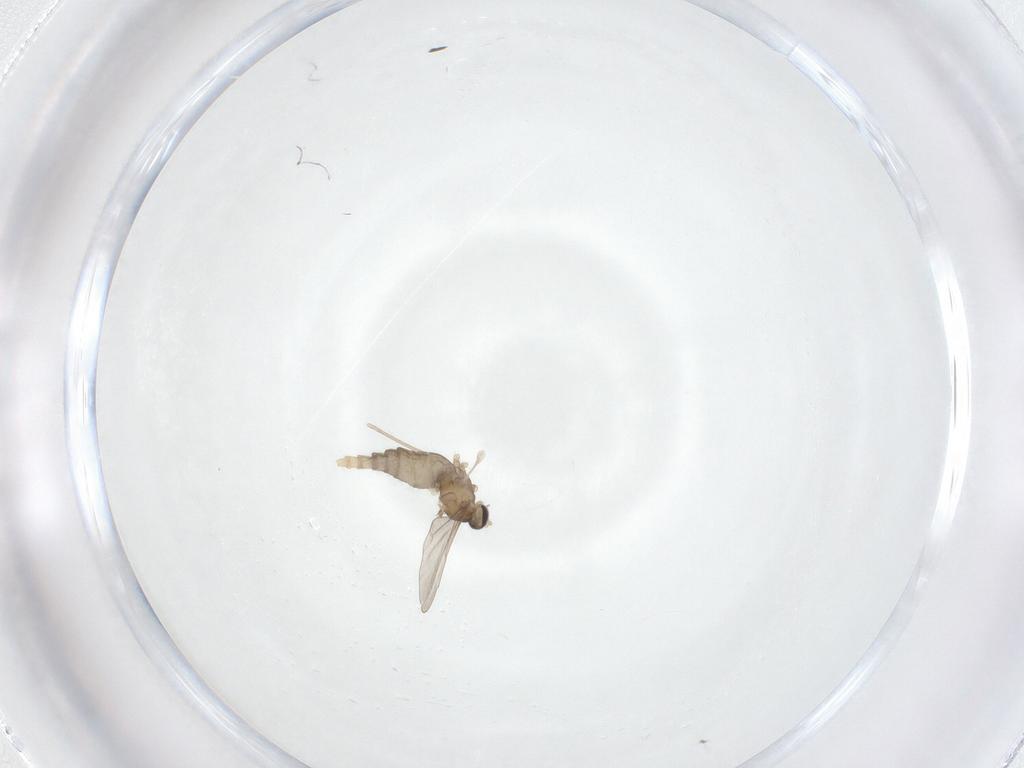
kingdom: Animalia
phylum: Arthropoda
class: Insecta
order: Diptera
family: Cecidomyiidae
